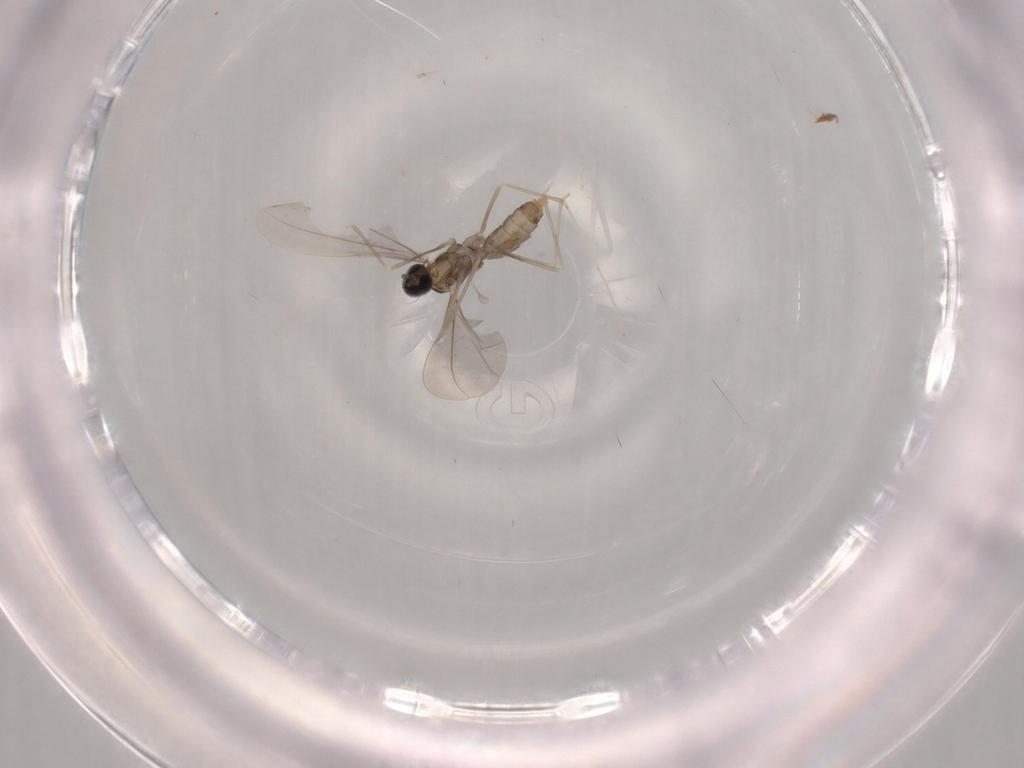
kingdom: Animalia
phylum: Arthropoda
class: Insecta
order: Diptera
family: Cecidomyiidae
